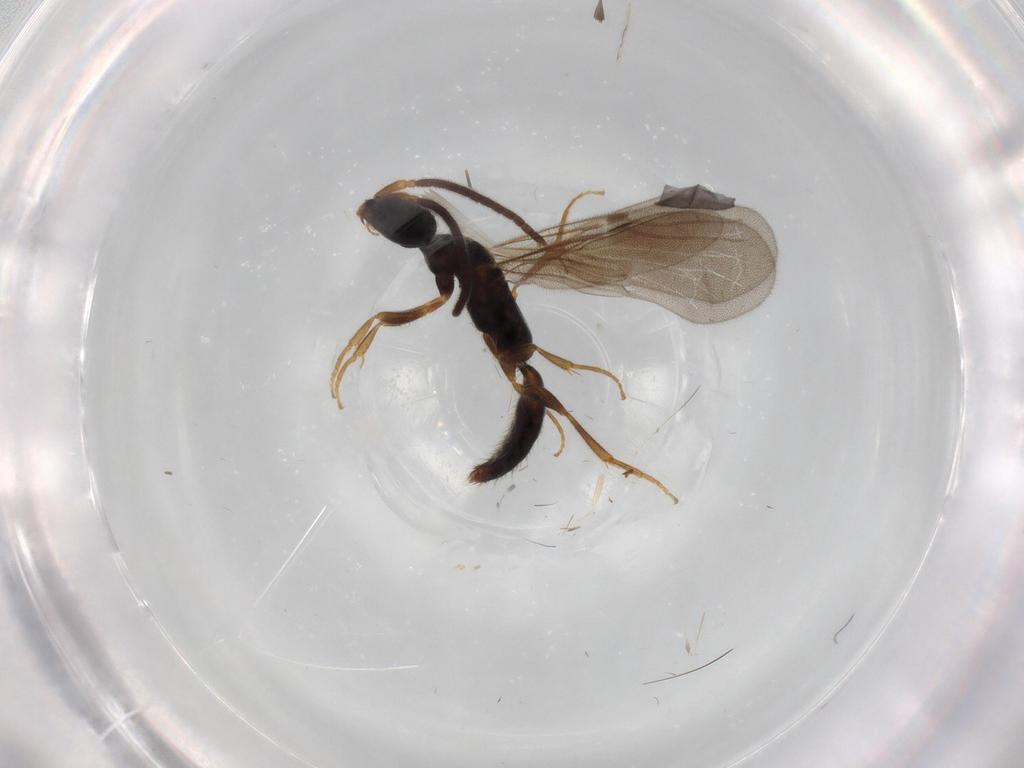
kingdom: Animalia
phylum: Arthropoda
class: Insecta
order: Hymenoptera
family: Bethylidae
